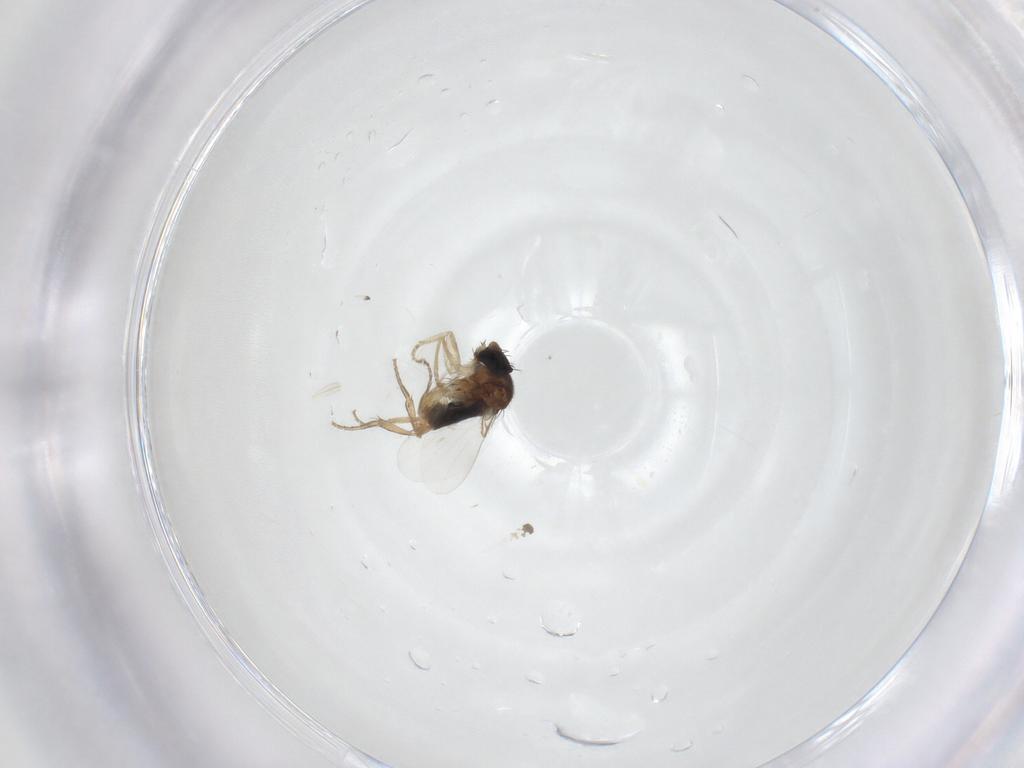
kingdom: Animalia
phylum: Arthropoda
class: Insecta
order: Diptera
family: Phoridae
